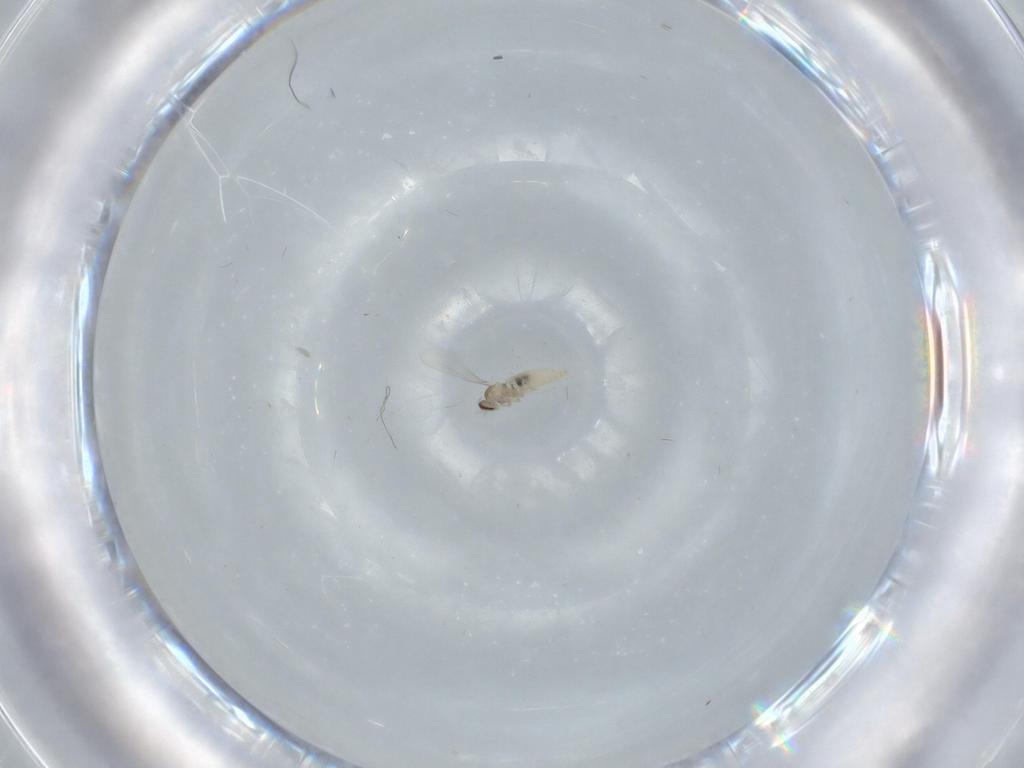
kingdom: Animalia
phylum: Arthropoda
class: Insecta
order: Diptera
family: Cecidomyiidae
